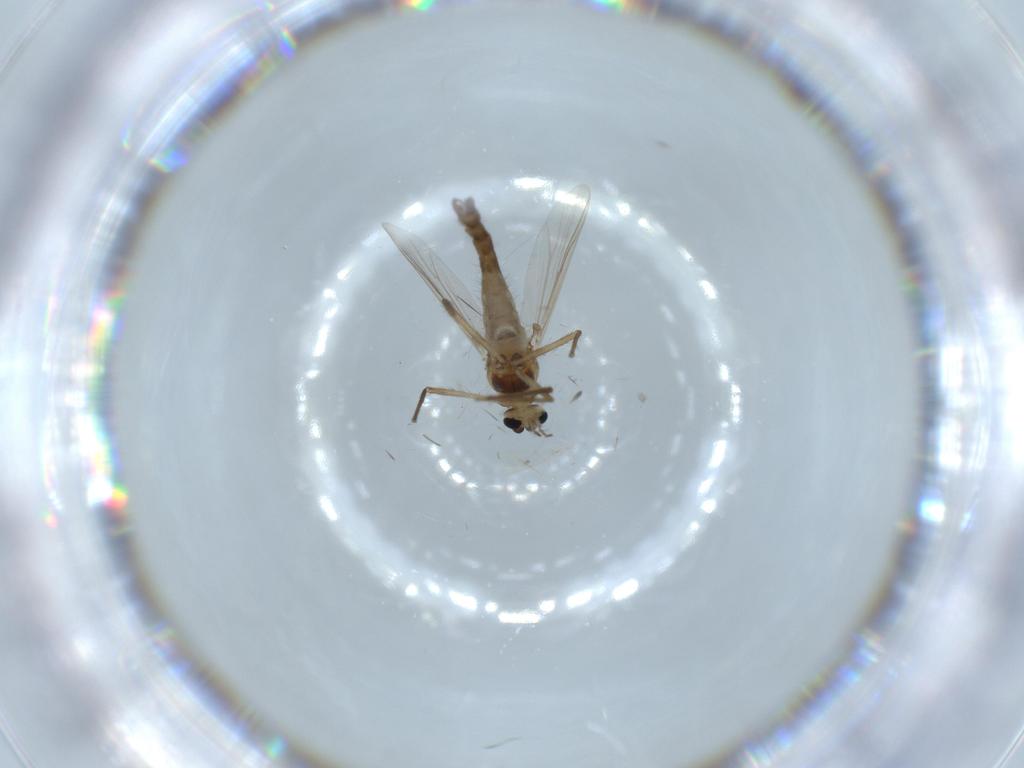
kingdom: Animalia
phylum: Arthropoda
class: Insecta
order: Diptera
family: Chironomidae
